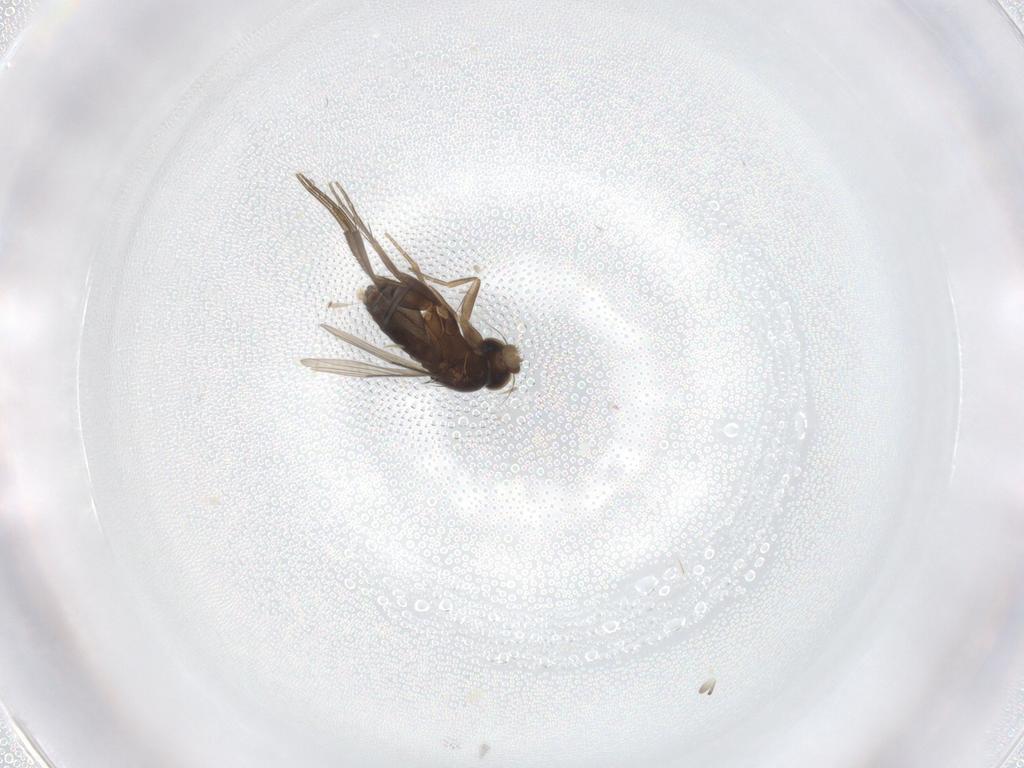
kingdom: Animalia
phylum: Arthropoda
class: Insecta
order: Diptera
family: Phoridae
